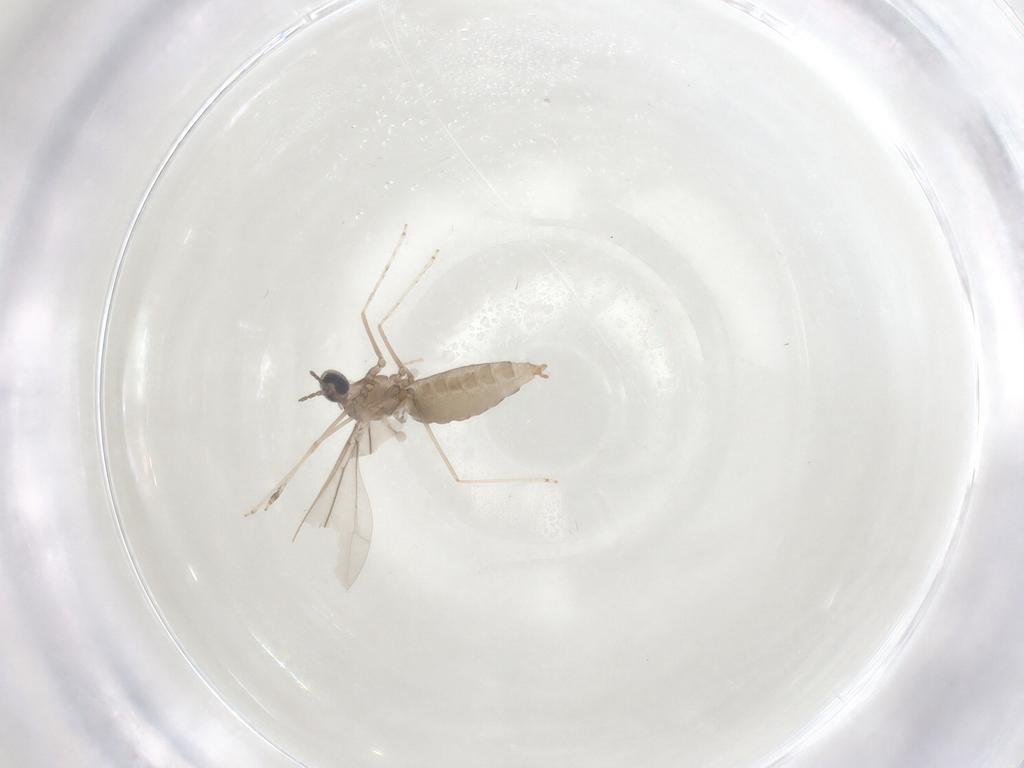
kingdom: Animalia
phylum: Arthropoda
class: Insecta
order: Diptera
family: Cecidomyiidae
